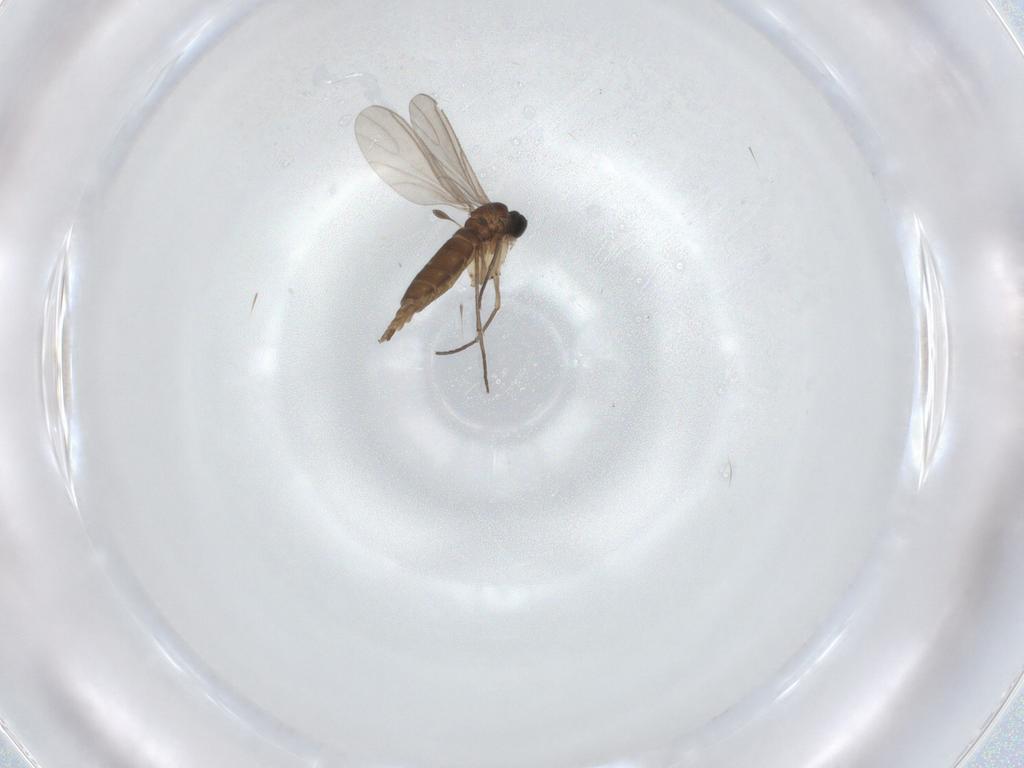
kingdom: Animalia
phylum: Arthropoda
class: Insecta
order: Diptera
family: Sciaridae
